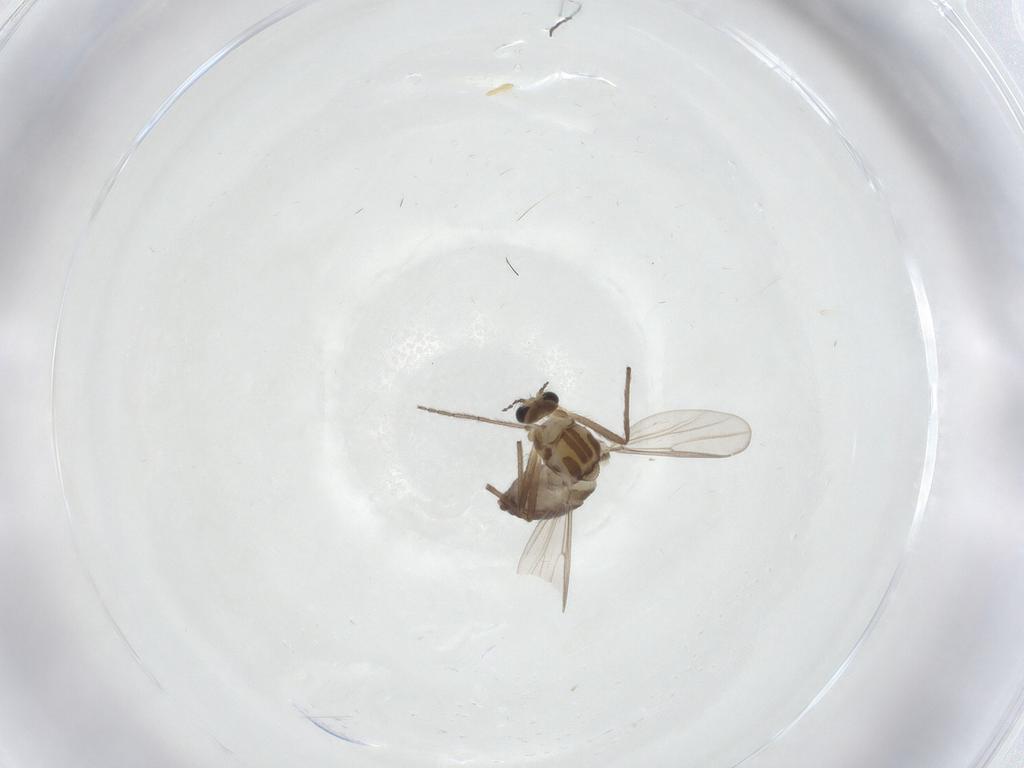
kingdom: Animalia
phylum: Arthropoda
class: Insecta
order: Diptera
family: Chironomidae
